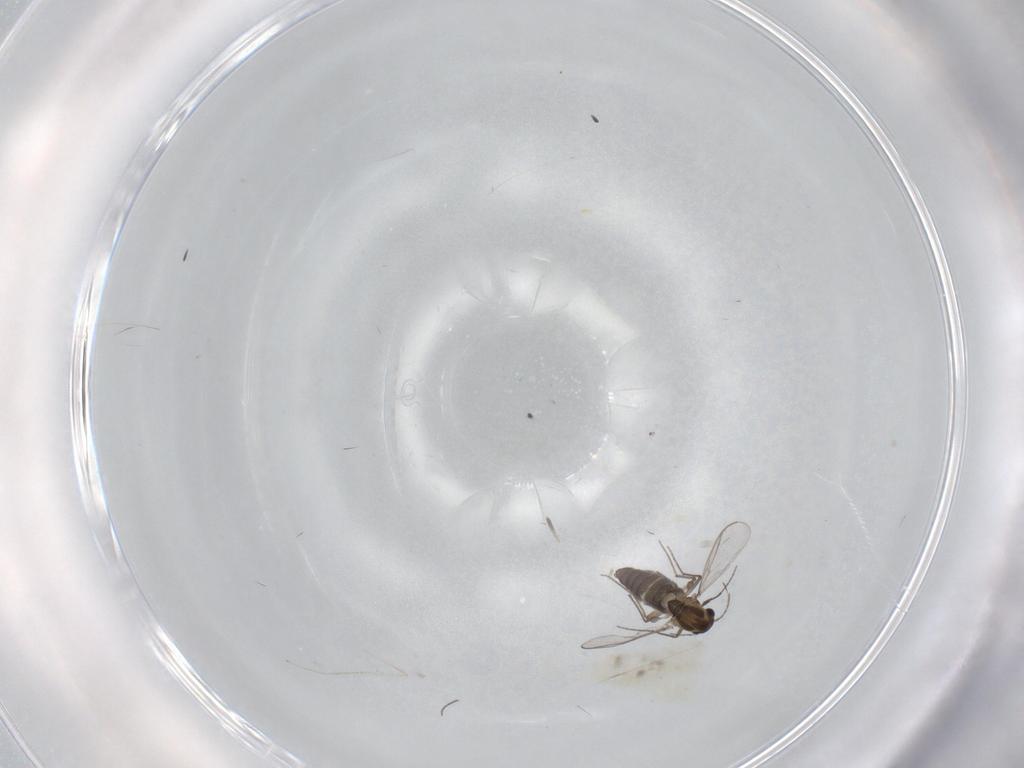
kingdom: Animalia
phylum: Arthropoda
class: Insecta
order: Diptera
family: Chironomidae
